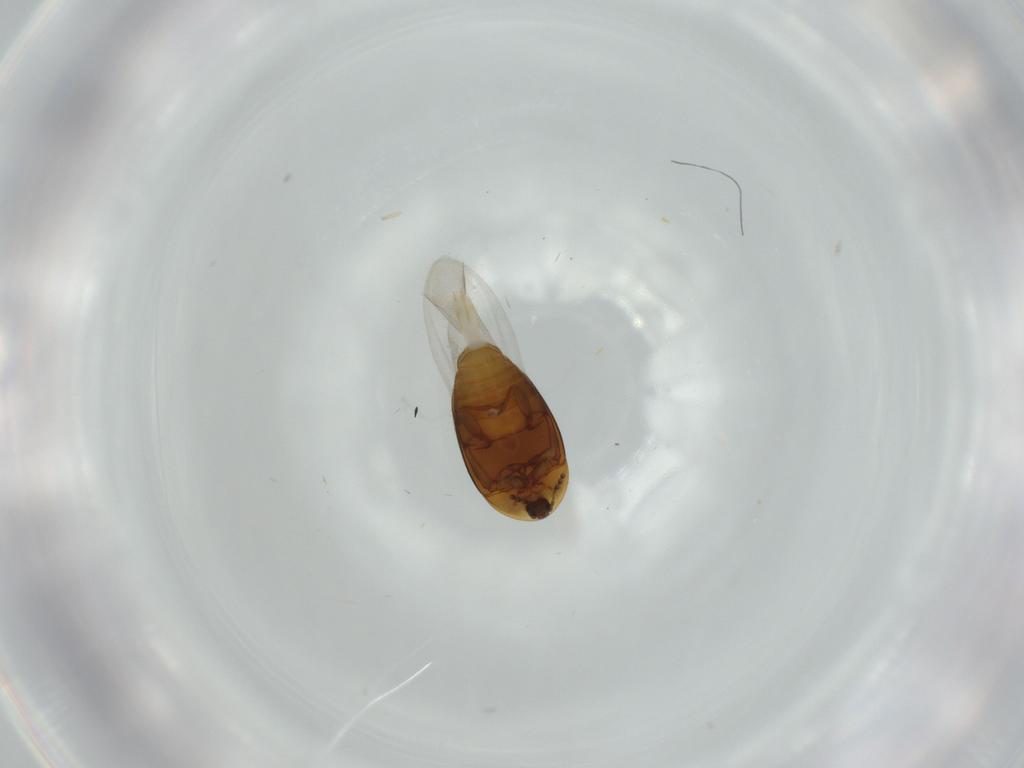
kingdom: Animalia
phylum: Arthropoda
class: Insecta
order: Coleoptera
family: Corylophidae
